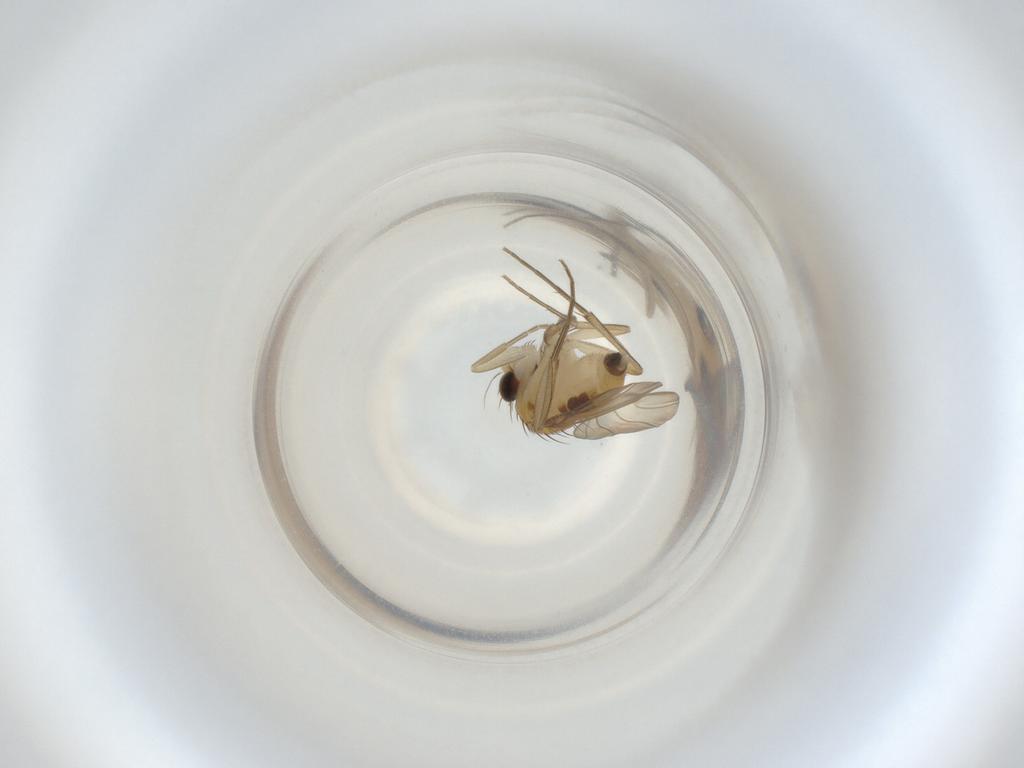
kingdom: Animalia
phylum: Arthropoda
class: Insecta
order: Diptera
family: Phoridae
